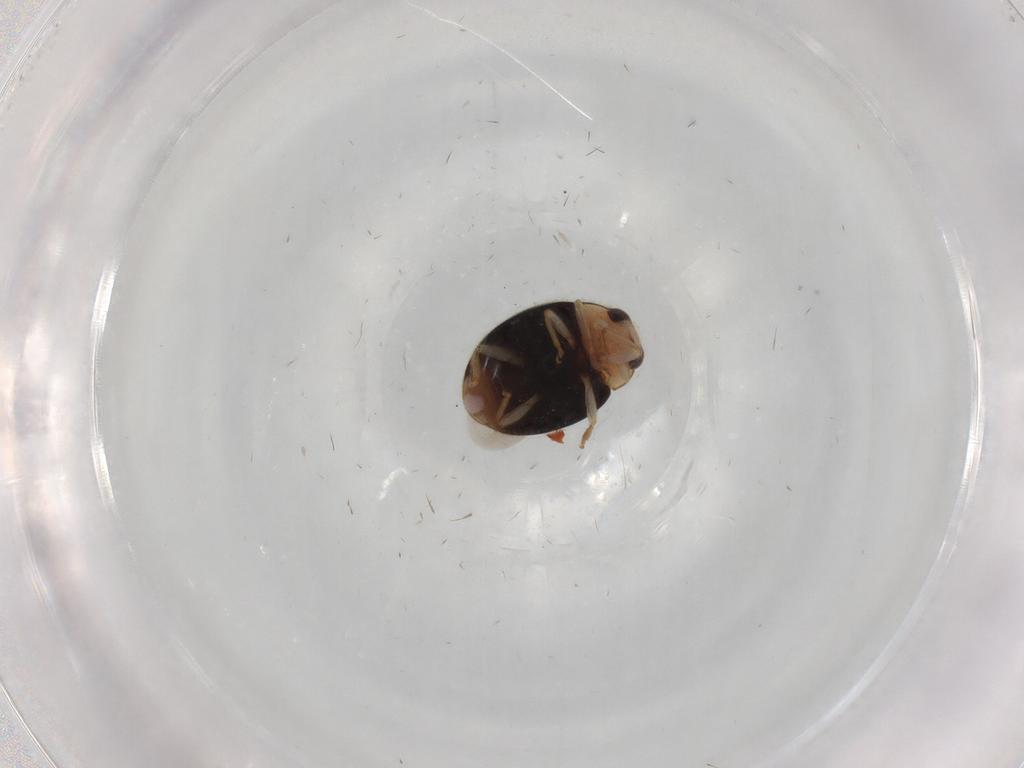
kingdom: Animalia
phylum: Arthropoda
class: Insecta
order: Coleoptera
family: Coccinellidae
